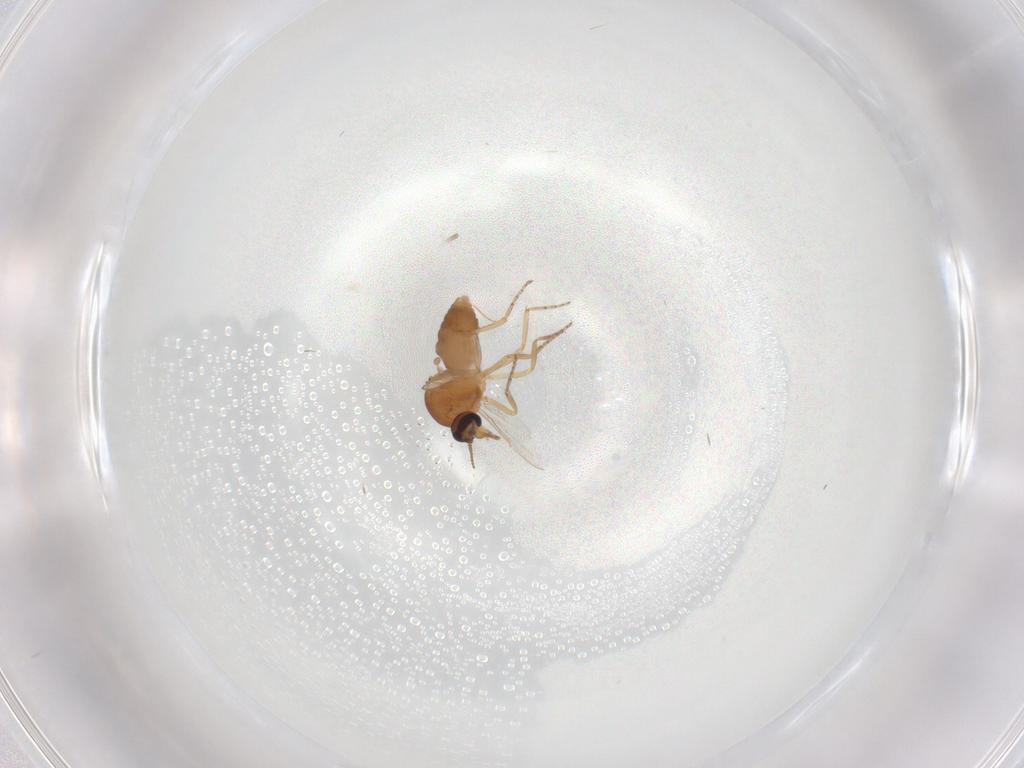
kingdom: Animalia
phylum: Arthropoda
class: Insecta
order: Diptera
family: Ceratopogonidae
